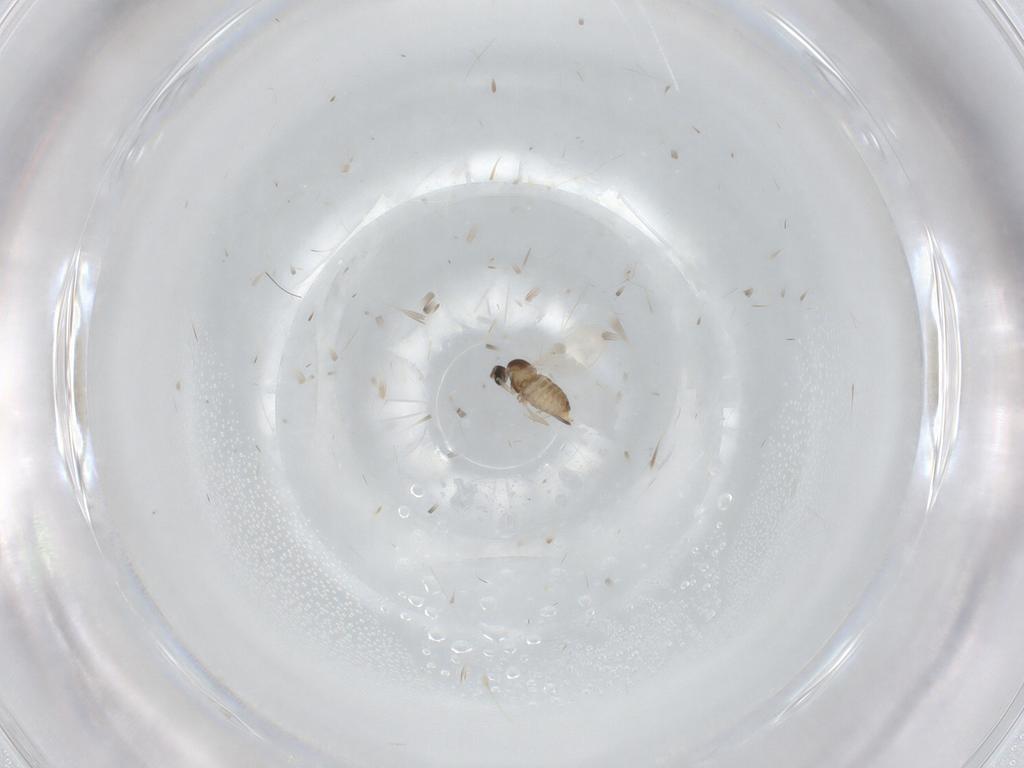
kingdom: Animalia
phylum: Arthropoda
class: Insecta
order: Diptera
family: Cecidomyiidae
